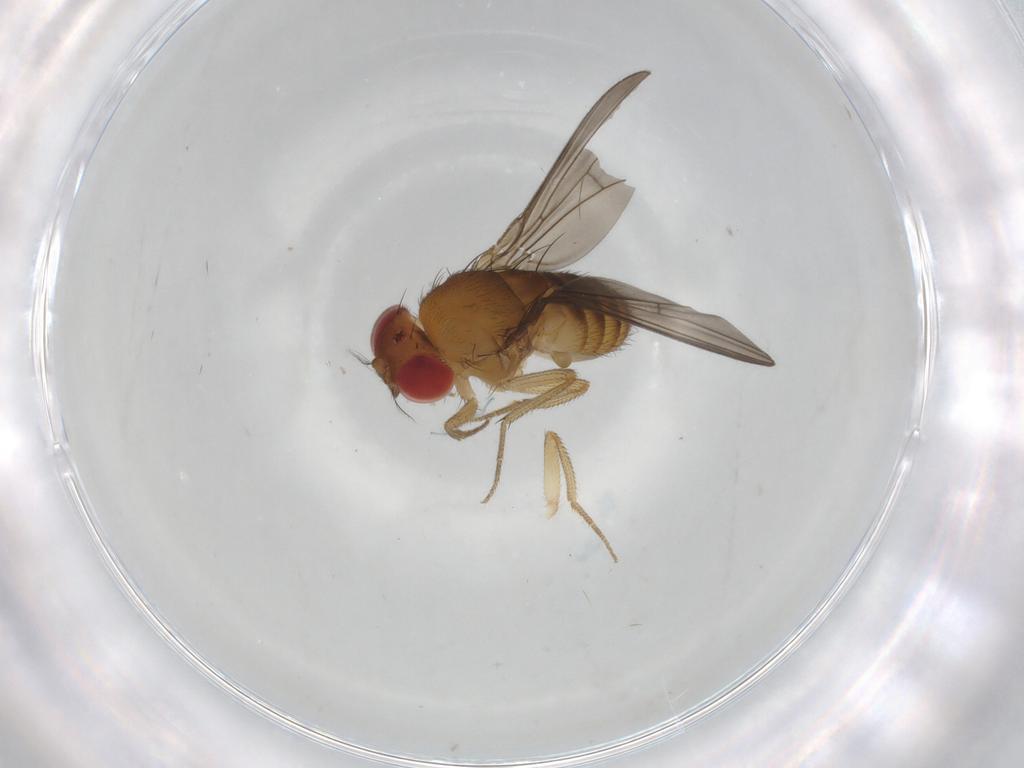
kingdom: Animalia
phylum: Arthropoda
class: Insecta
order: Diptera
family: Drosophilidae
